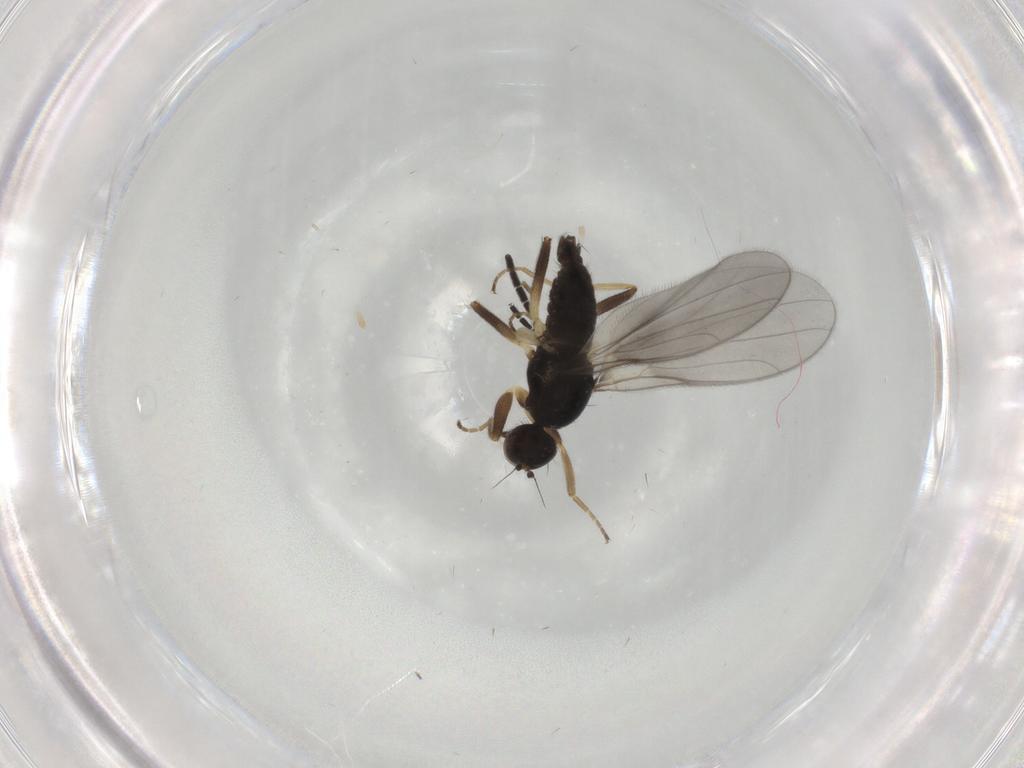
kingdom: Animalia
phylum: Arthropoda
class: Insecta
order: Diptera
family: Hybotidae
